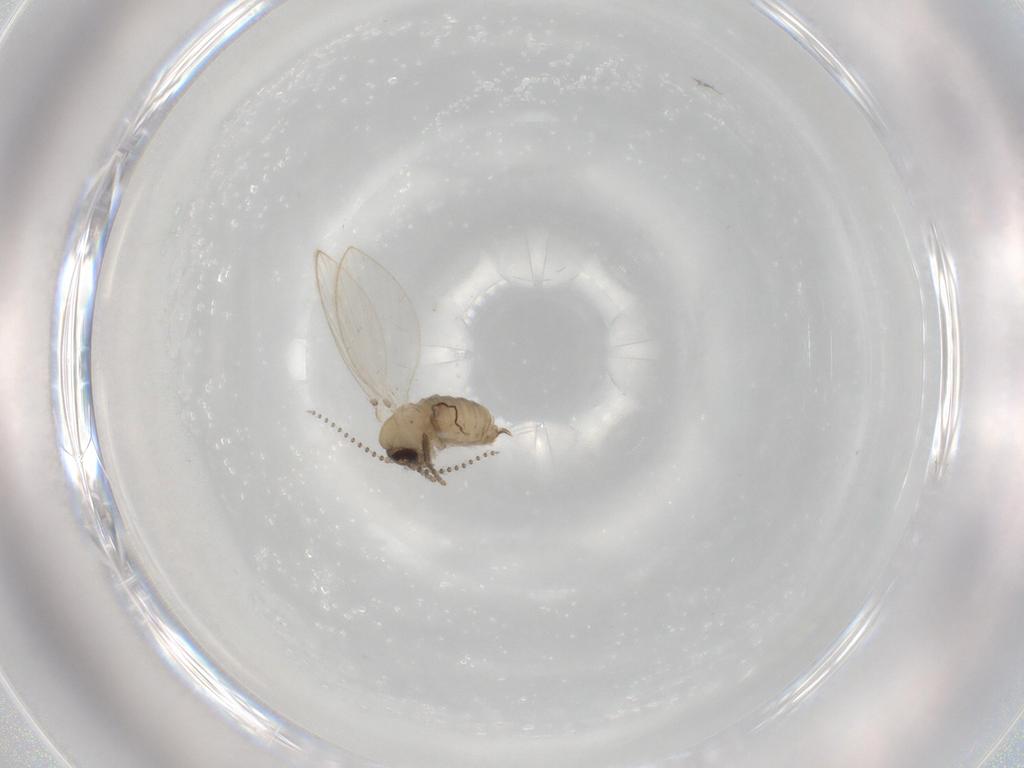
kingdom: Animalia
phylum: Arthropoda
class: Insecta
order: Diptera
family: Psychodidae
